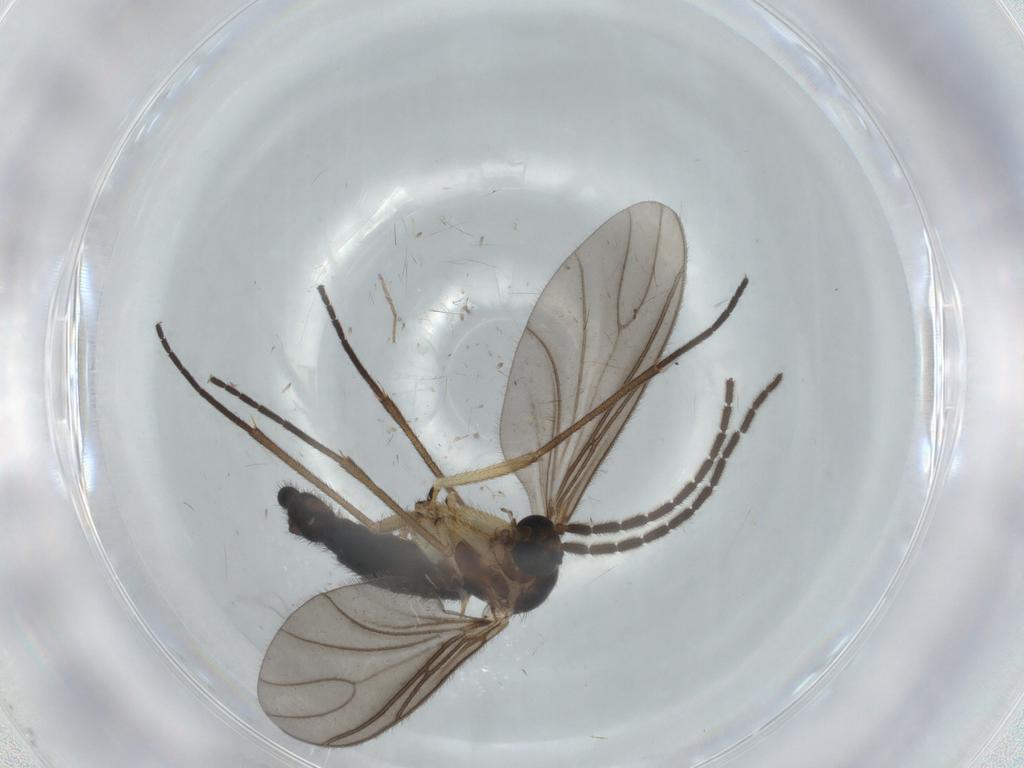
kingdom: Animalia
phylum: Arthropoda
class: Insecta
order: Diptera
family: Sciaridae
